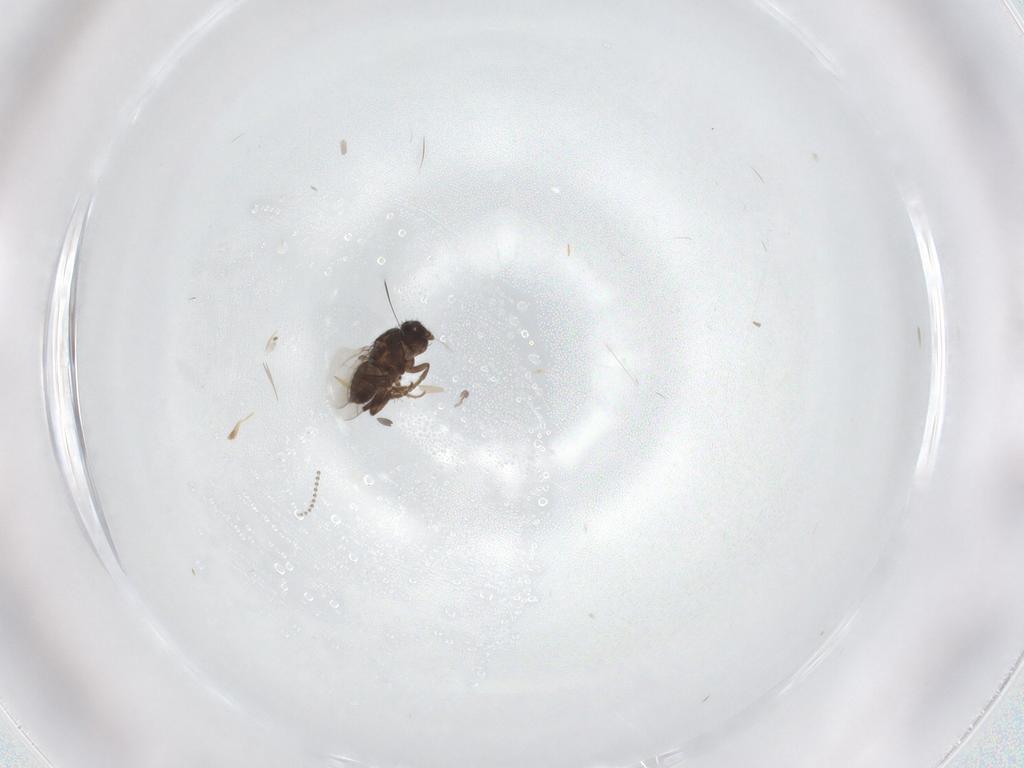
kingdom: Animalia
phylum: Arthropoda
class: Insecta
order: Diptera
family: Psychodidae
